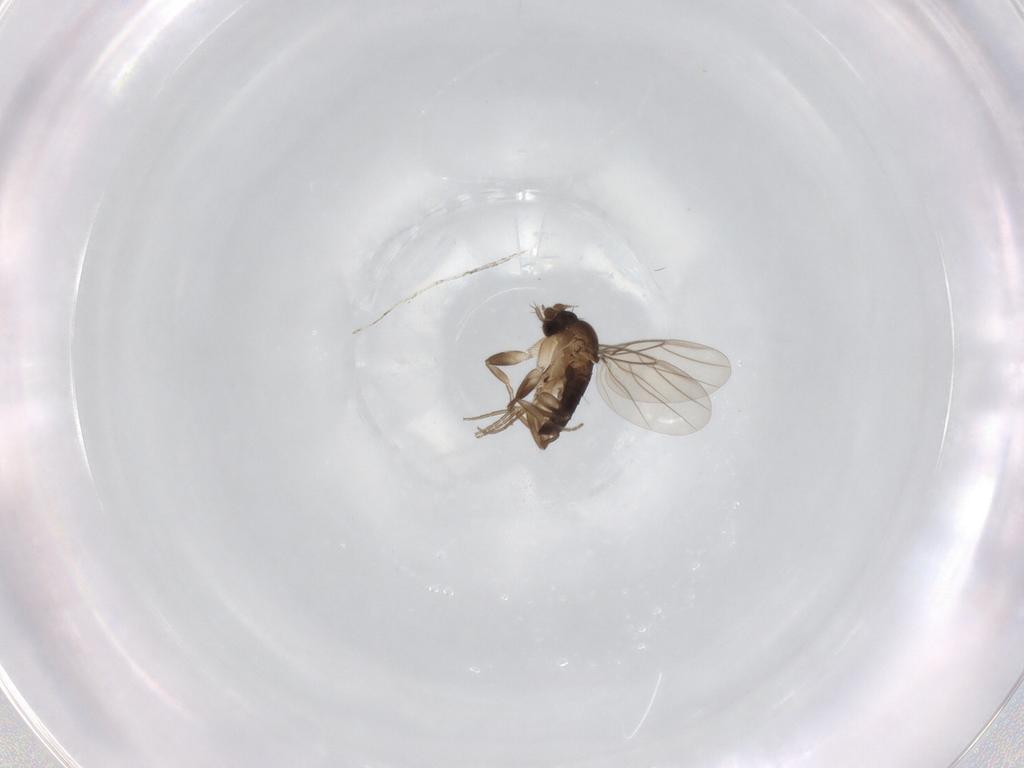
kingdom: Animalia
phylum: Arthropoda
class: Insecta
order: Diptera
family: Phoridae
